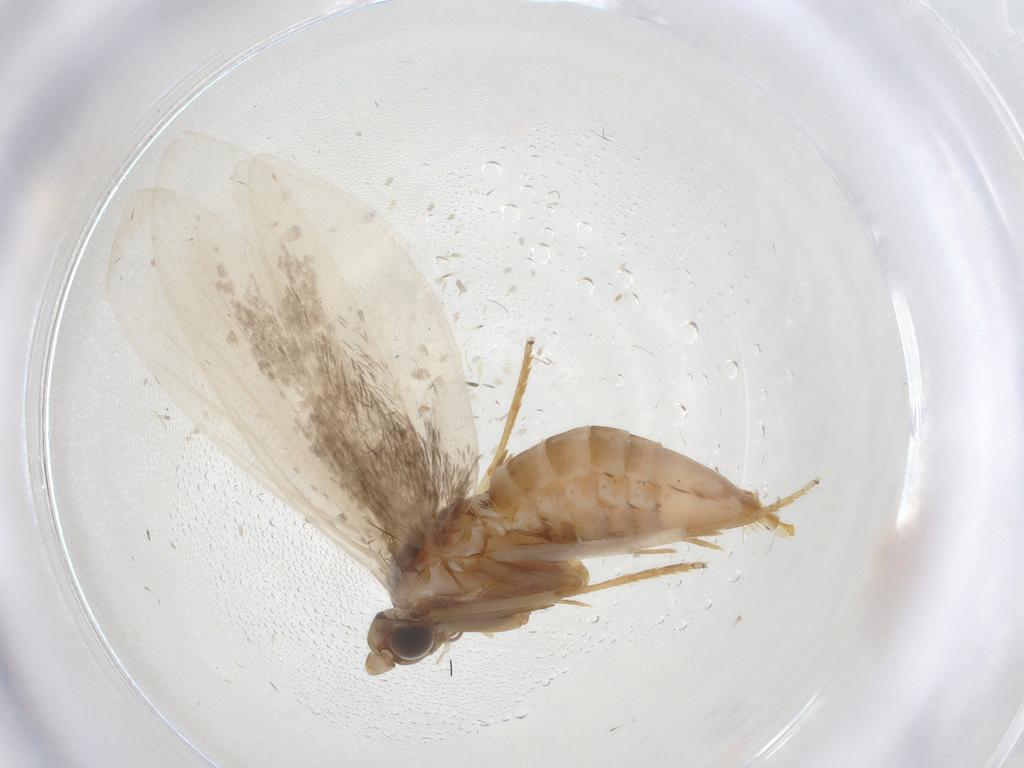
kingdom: Animalia
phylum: Arthropoda
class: Insecta
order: Lepidoptera
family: Adelidae
